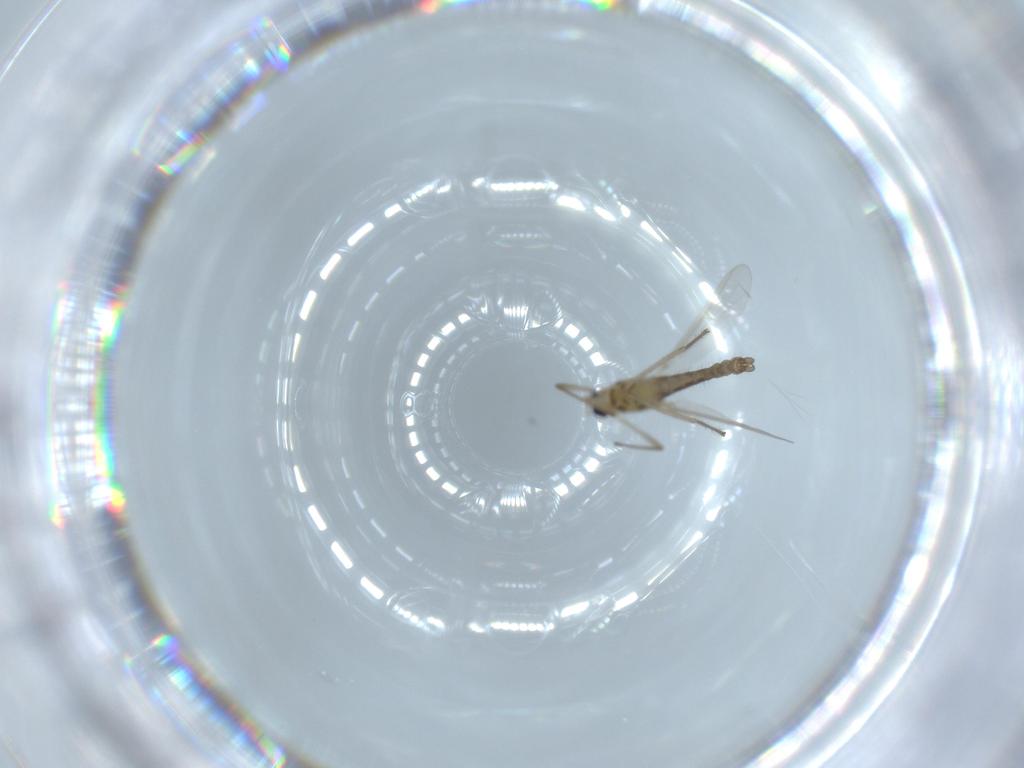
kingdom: Animalia
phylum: Arthropoda
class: Insecta
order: Diptera
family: Chironomidae
